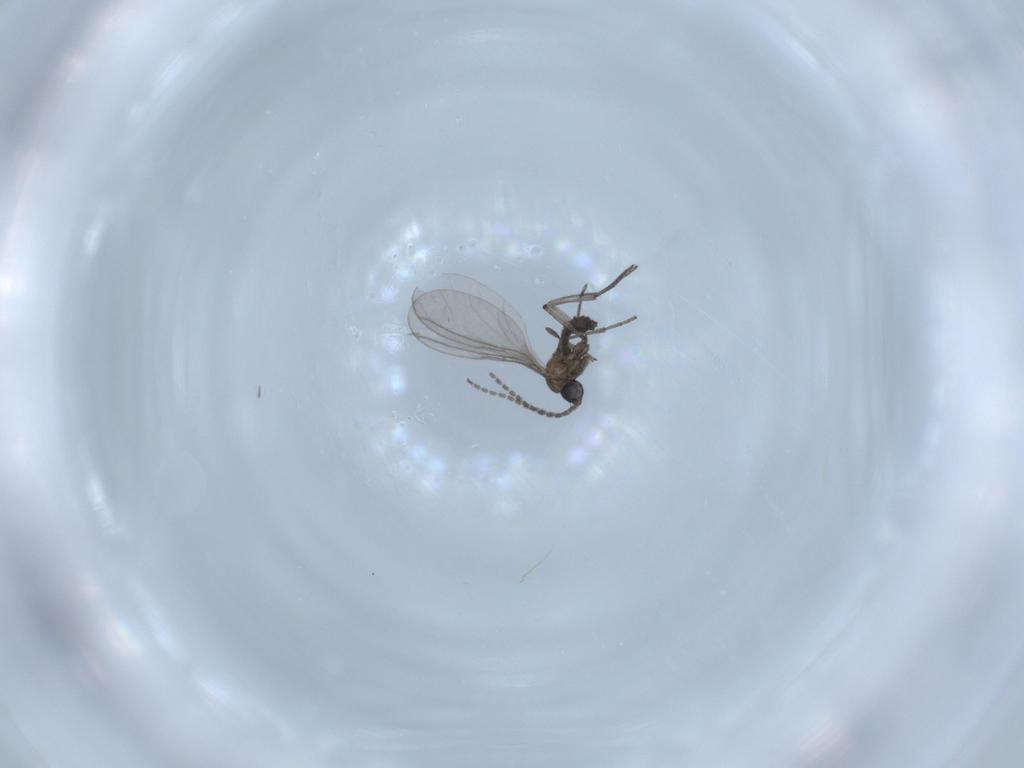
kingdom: Animalia
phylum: Arthropoda
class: Insecta
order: Diptera
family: Sciaridae
